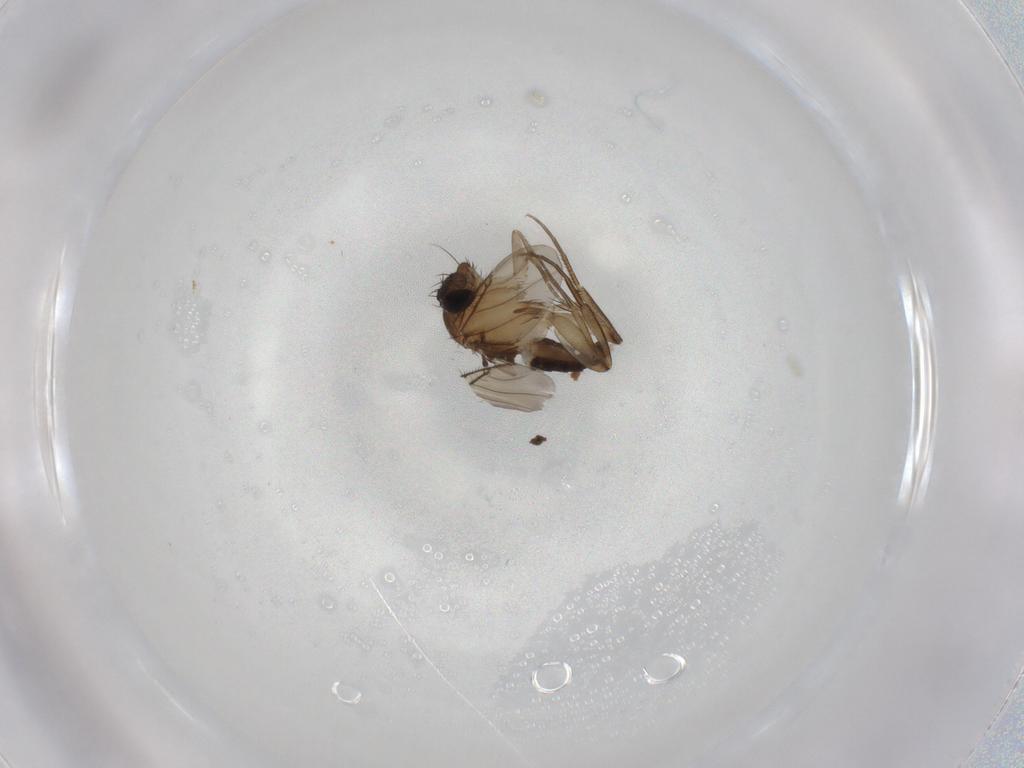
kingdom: Animalia
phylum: Arthropoda
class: Insecta
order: Diptera
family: Phoridae
